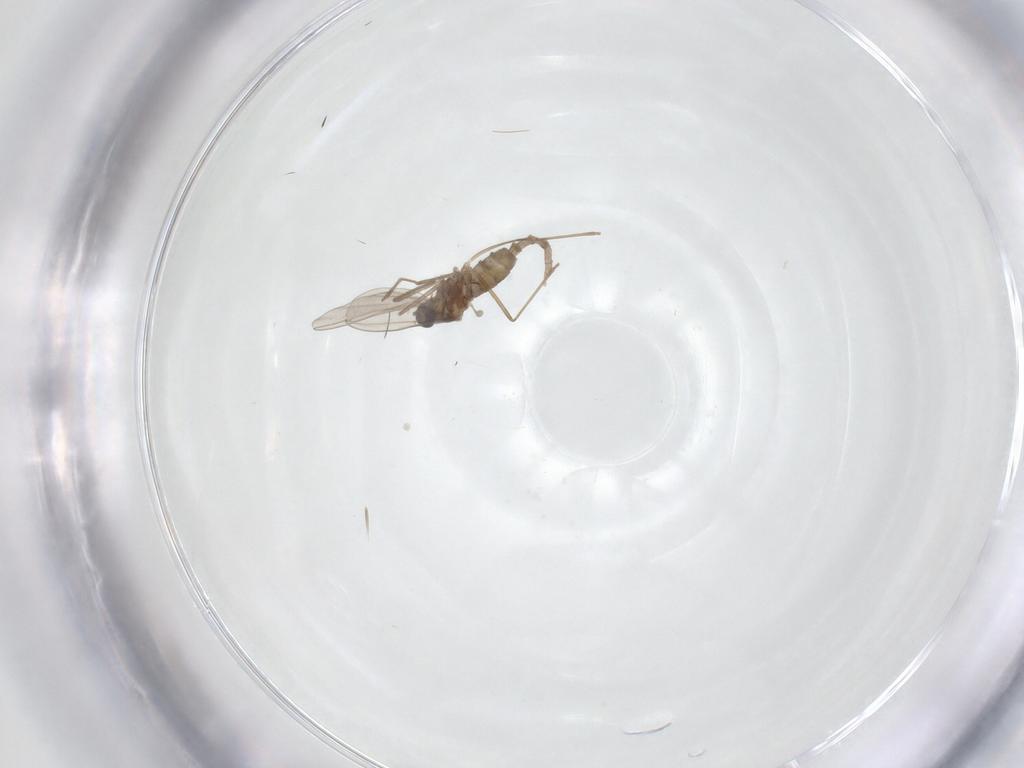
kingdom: Animalia
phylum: Arthropoda
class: Insecta
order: Diptera
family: Cecidomyiidae
